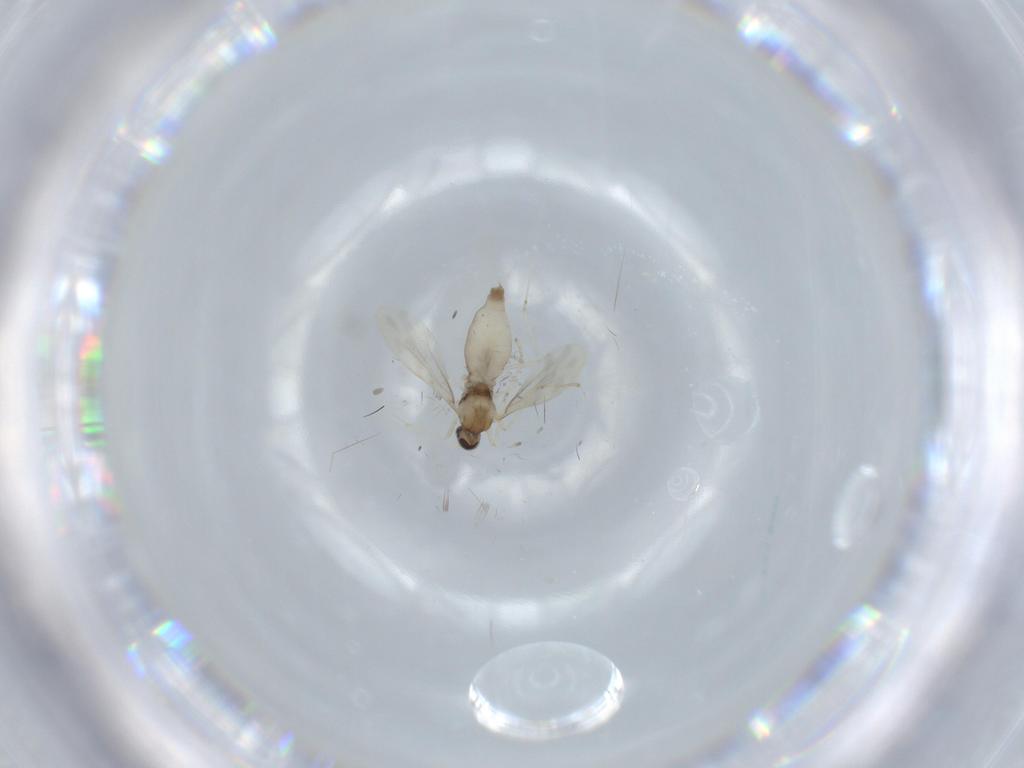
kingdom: Animalia
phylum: Arthropoda
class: Insecta
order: Diptera
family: Cecidomyiidae
